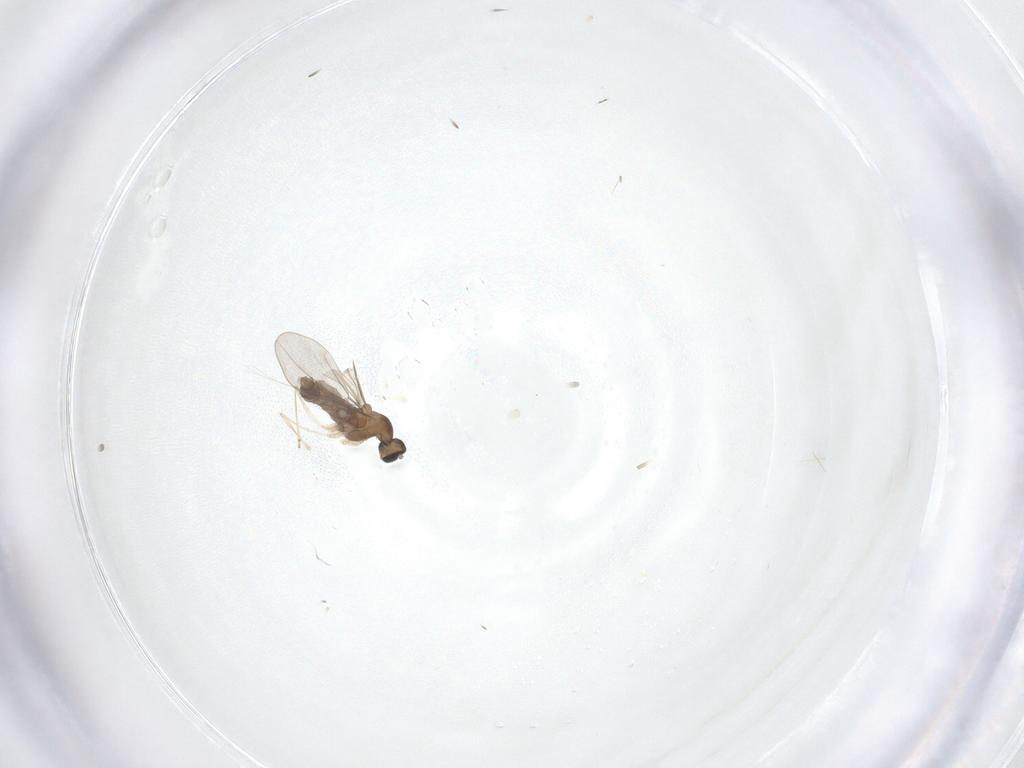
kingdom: Animalia
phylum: Arthropoda
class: Insecta
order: Diptera
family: Cecidomyiidae
